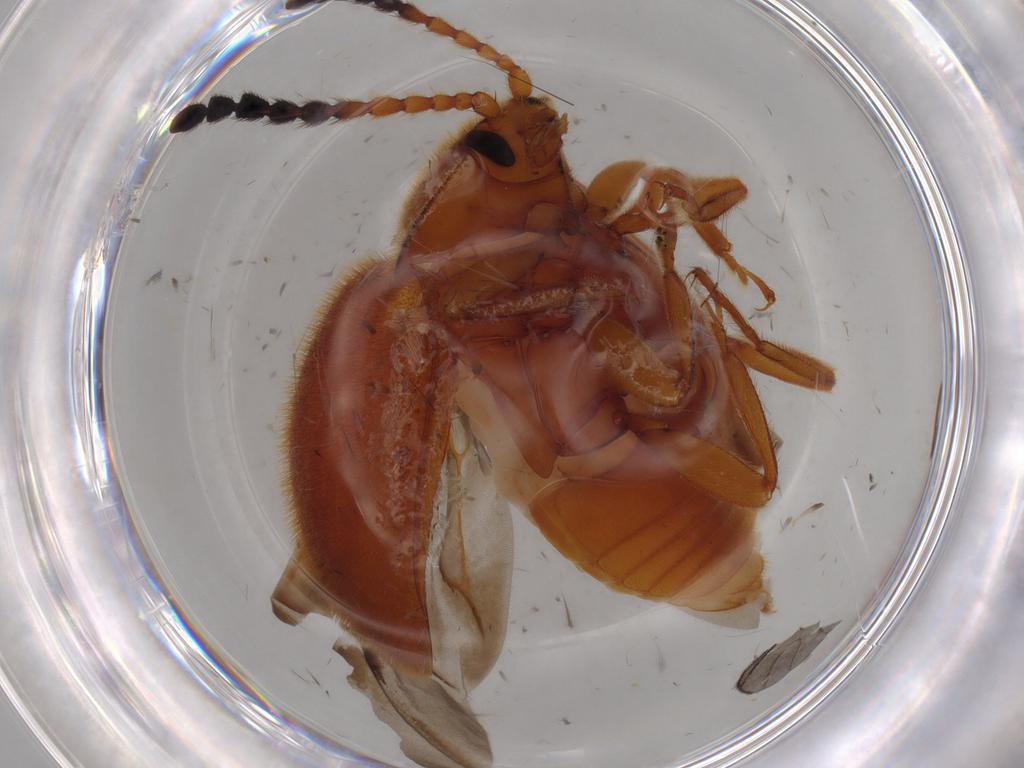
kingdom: Animalia
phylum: Arthropoda
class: Insecta
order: Coleoptera
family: Endomychidae
